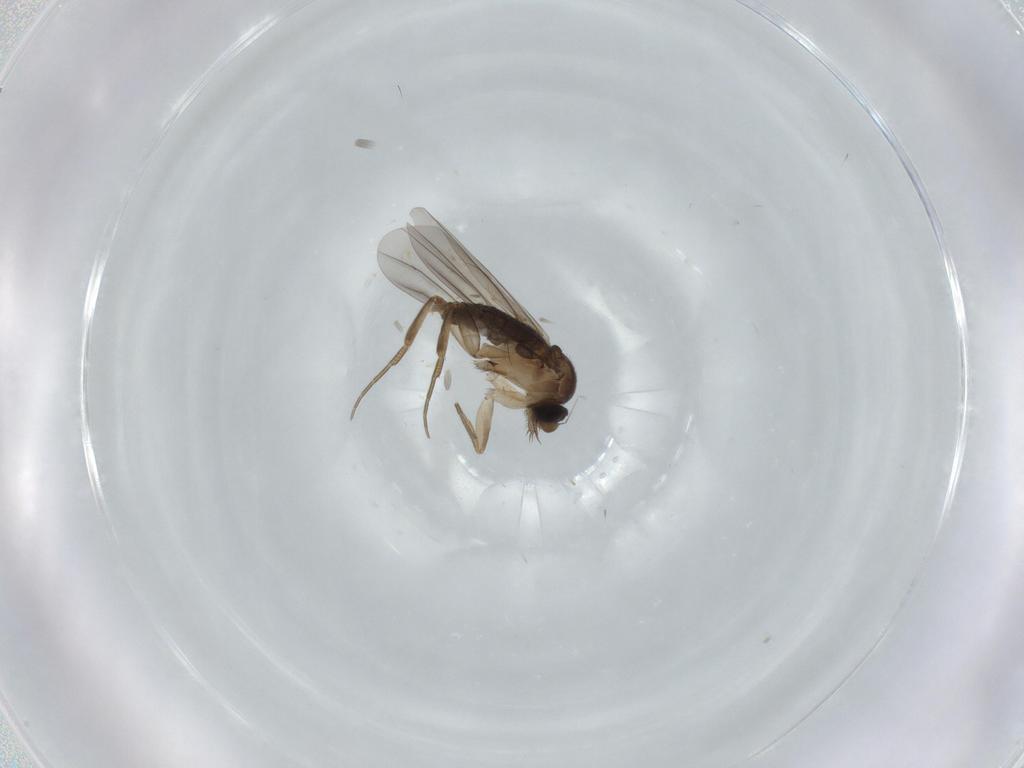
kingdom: Animalia
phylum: Arthropoda
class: Insecta
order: Diptera
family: Phoridae
